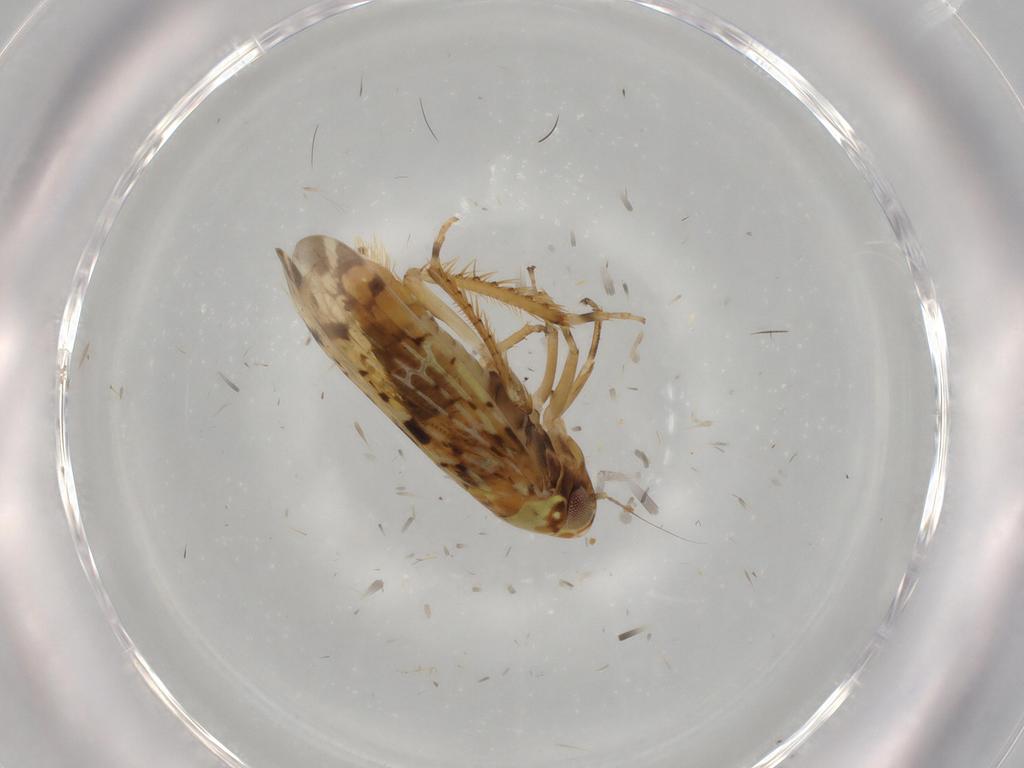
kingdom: Animalia
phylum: Arthropoda
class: Insecta
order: Hemiptera
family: Cicadellidae
